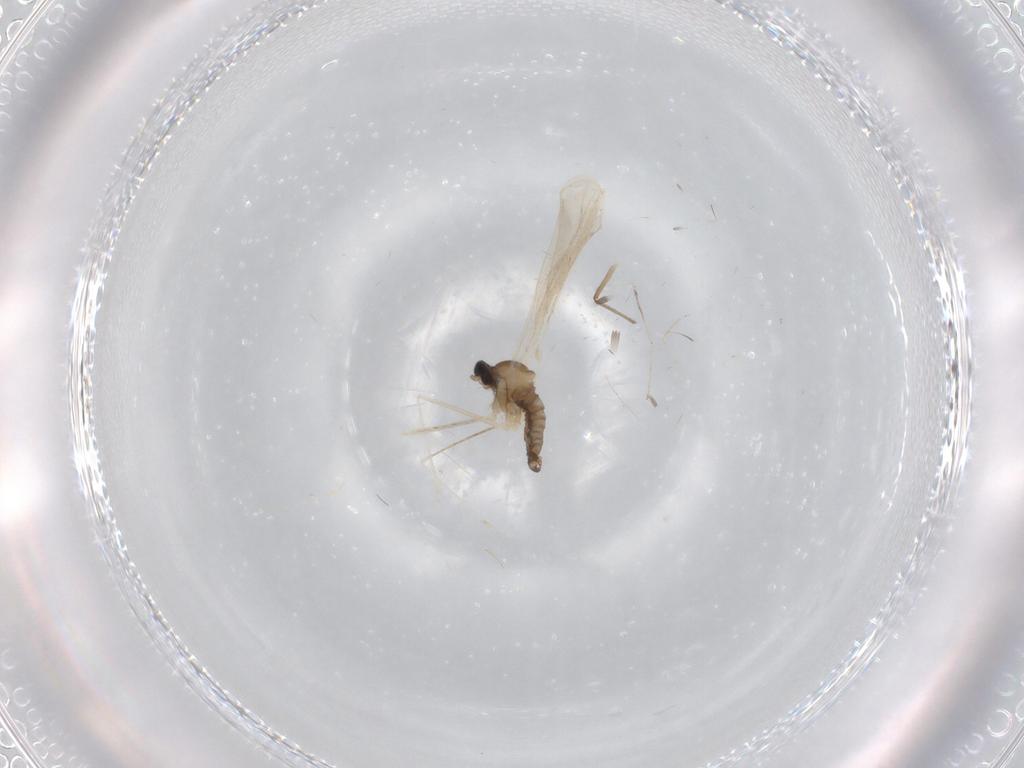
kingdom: Animalia
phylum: Arthropoda
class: Insecta
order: Diptera
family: Cecidomyiidae
